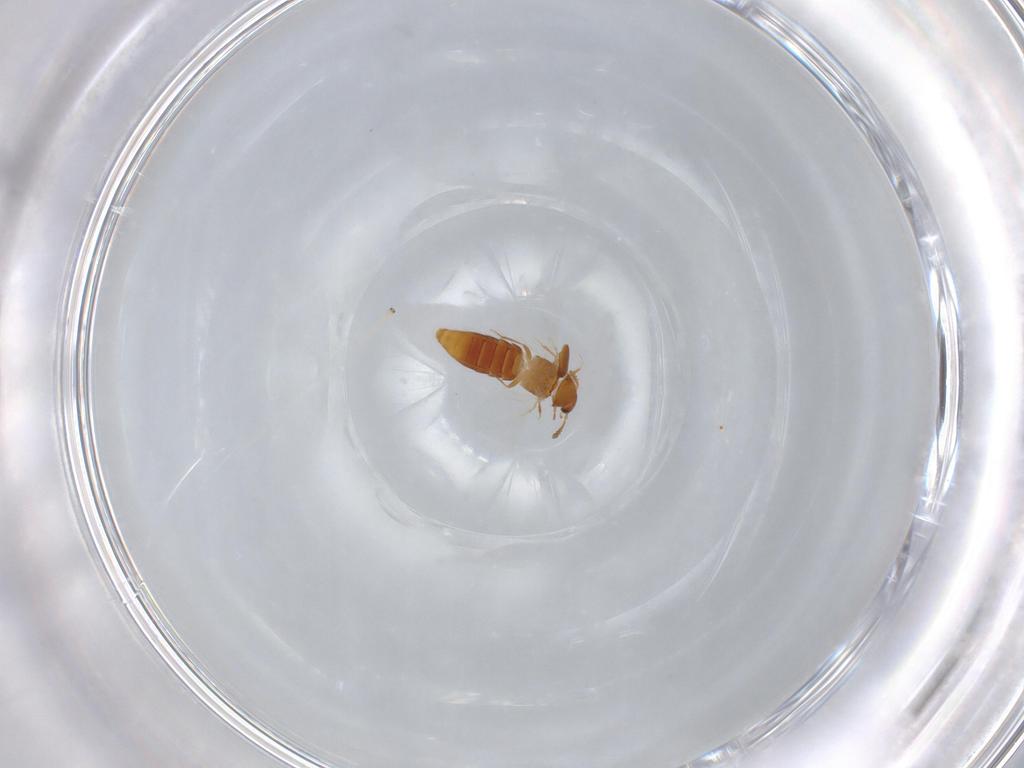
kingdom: Animalia
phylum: Arthropoda
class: Insecta
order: Coleoptera
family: Staphylinidae
